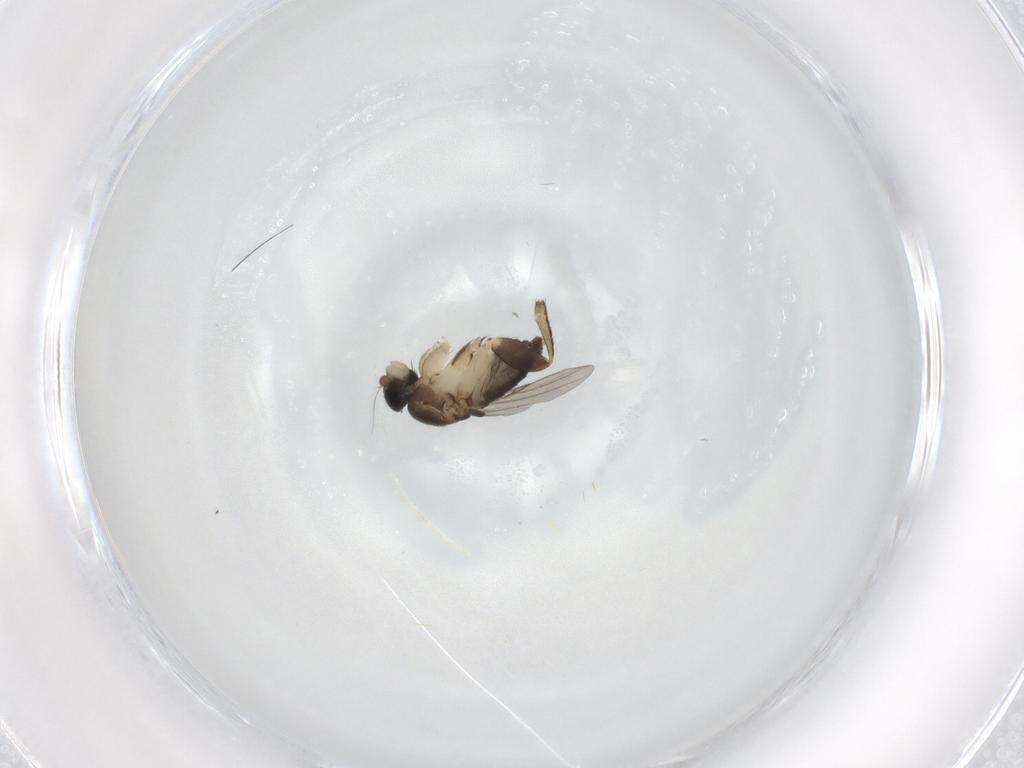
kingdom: Animalia
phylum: Arthropoda
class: Insecta
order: Diptera
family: Phoridae
